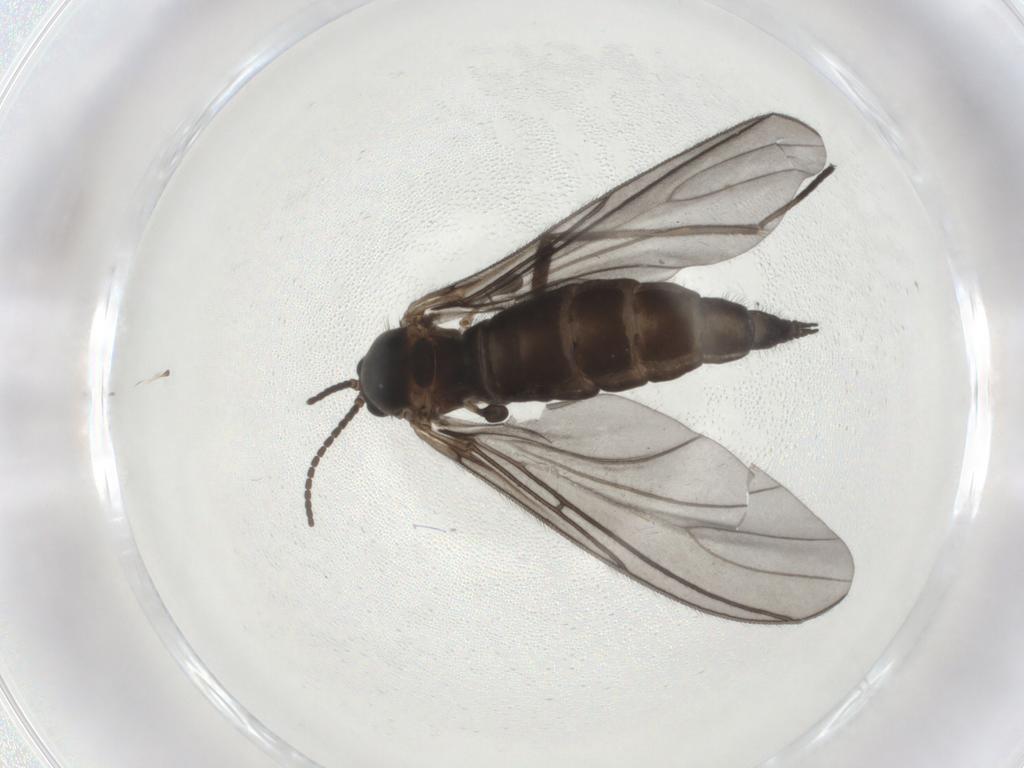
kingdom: Animalia
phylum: Arthropoda
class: Insecta
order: Diptera
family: Sciaridae
